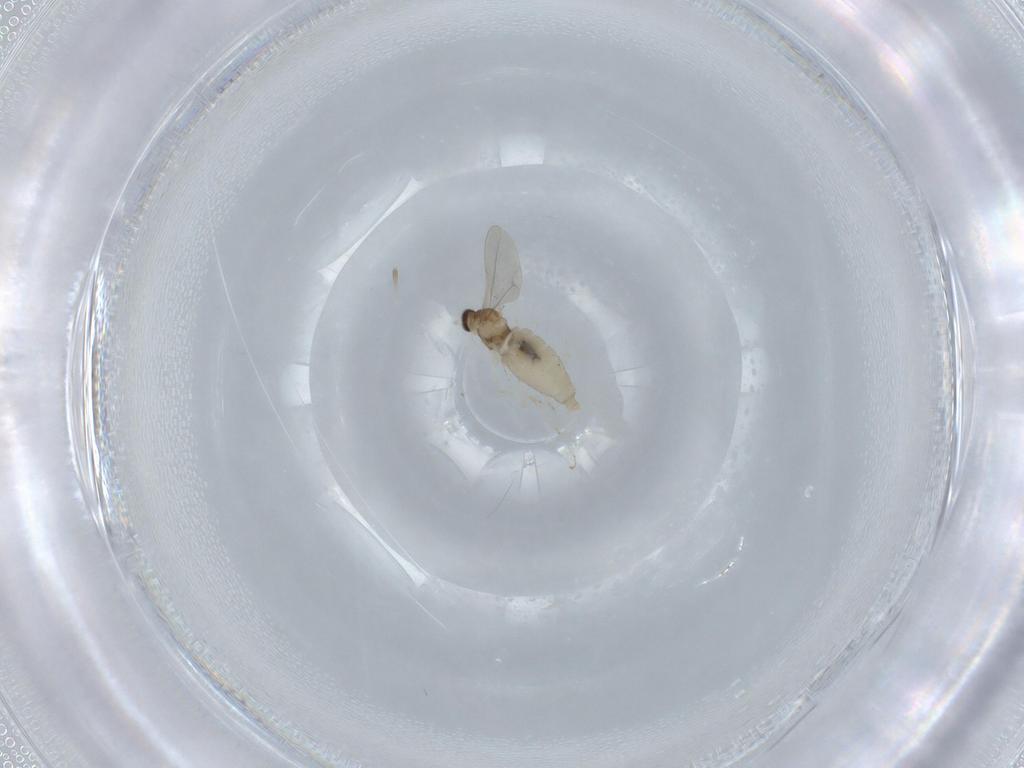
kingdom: Animalia
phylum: Arthropoda
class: Insecta
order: Diptera
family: Cecidomyiidae
